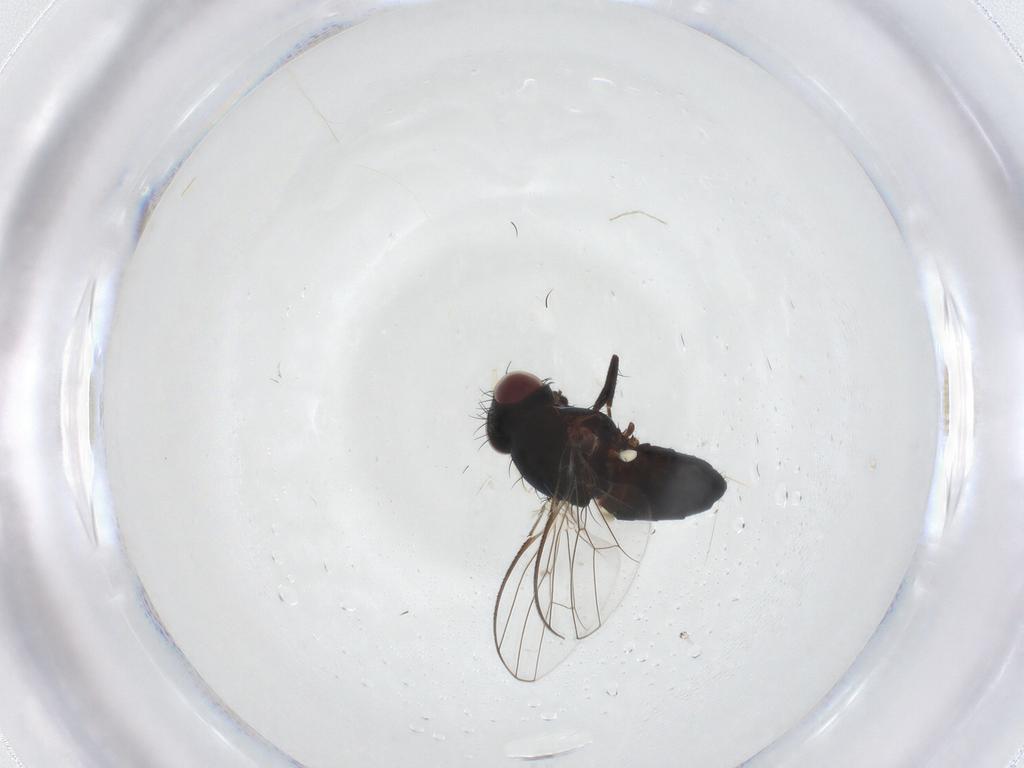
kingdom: Animalia
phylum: Arthropoda
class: Insecta
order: Diptera
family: Carnidae
